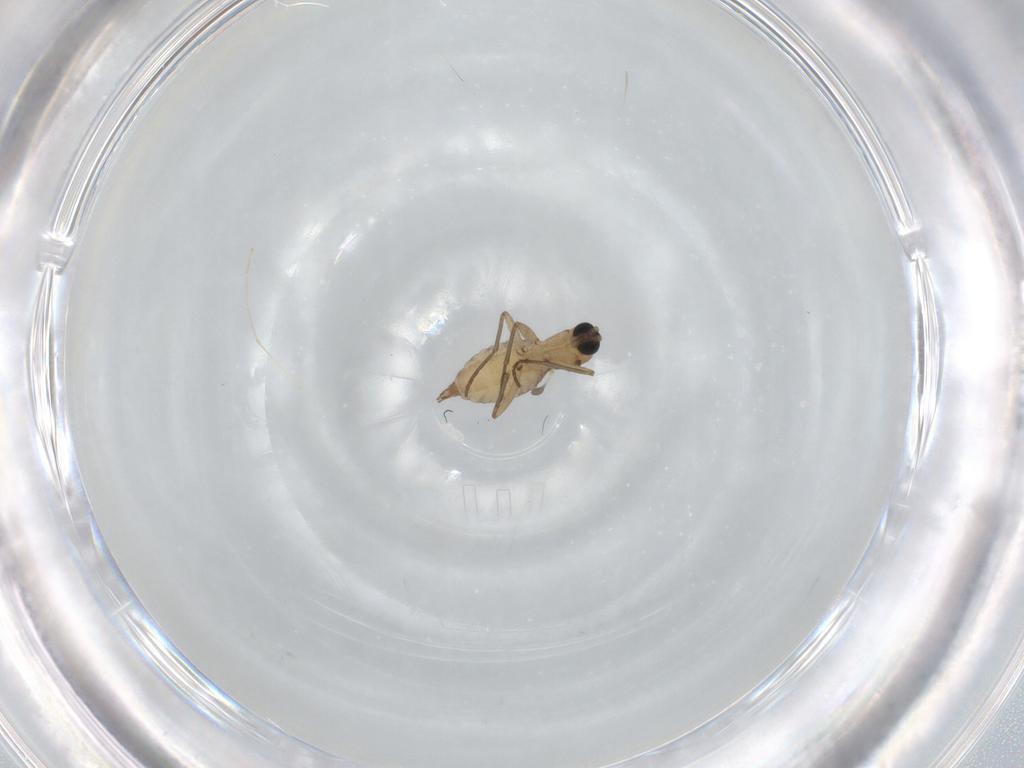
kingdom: Animalia
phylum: Arthropoda
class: Insecta
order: Diptera
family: Sciaridae
